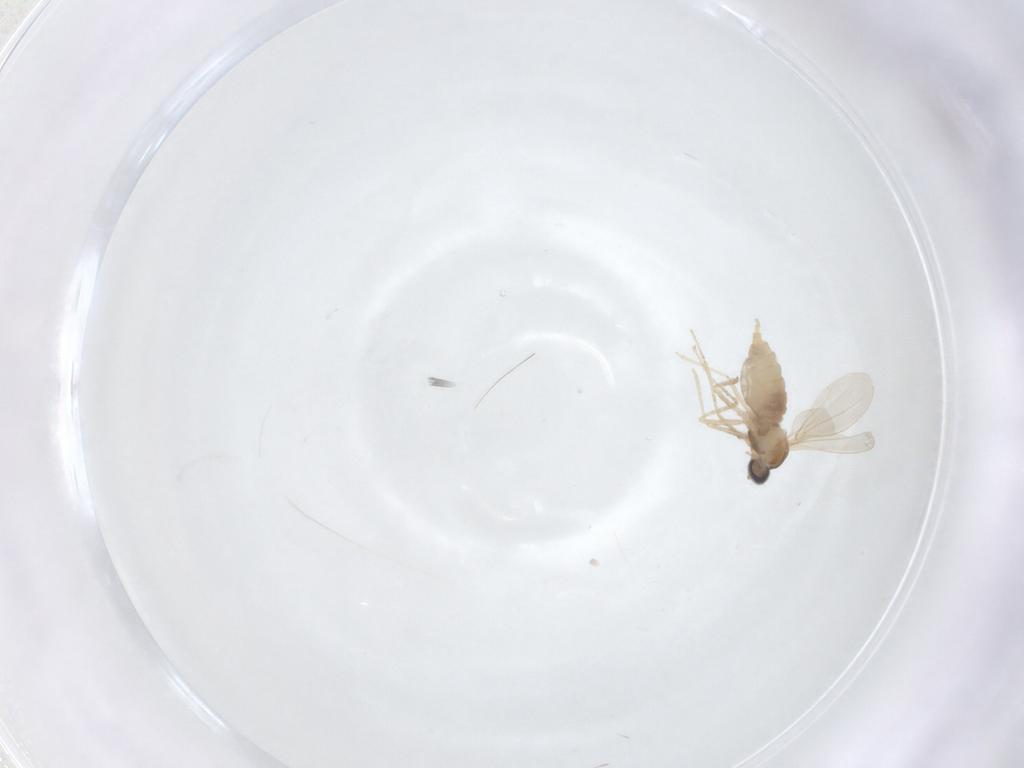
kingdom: Animalia
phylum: Arthropoda
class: Insecta
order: Diptera
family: Cecidomyiidae
